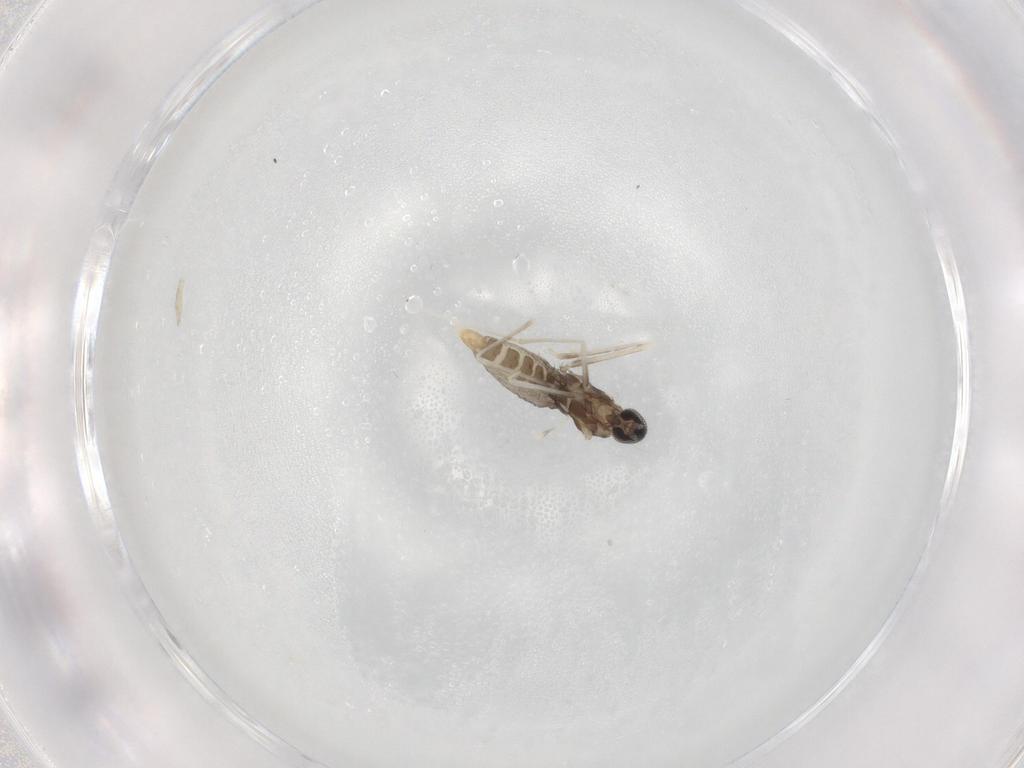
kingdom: Animalia
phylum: Arthropoda
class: Insecta
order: Diptera
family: Cecidomyiidae
